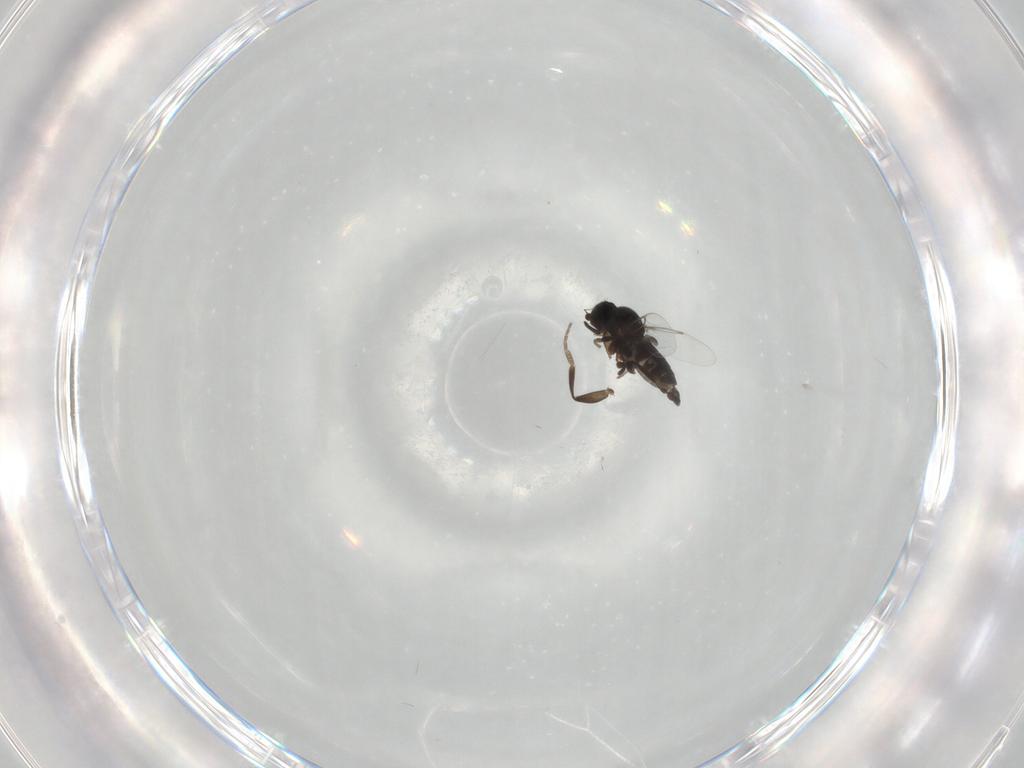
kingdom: Animalia
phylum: Arthropoda
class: Insecta
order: Diptera
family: Phoridae
